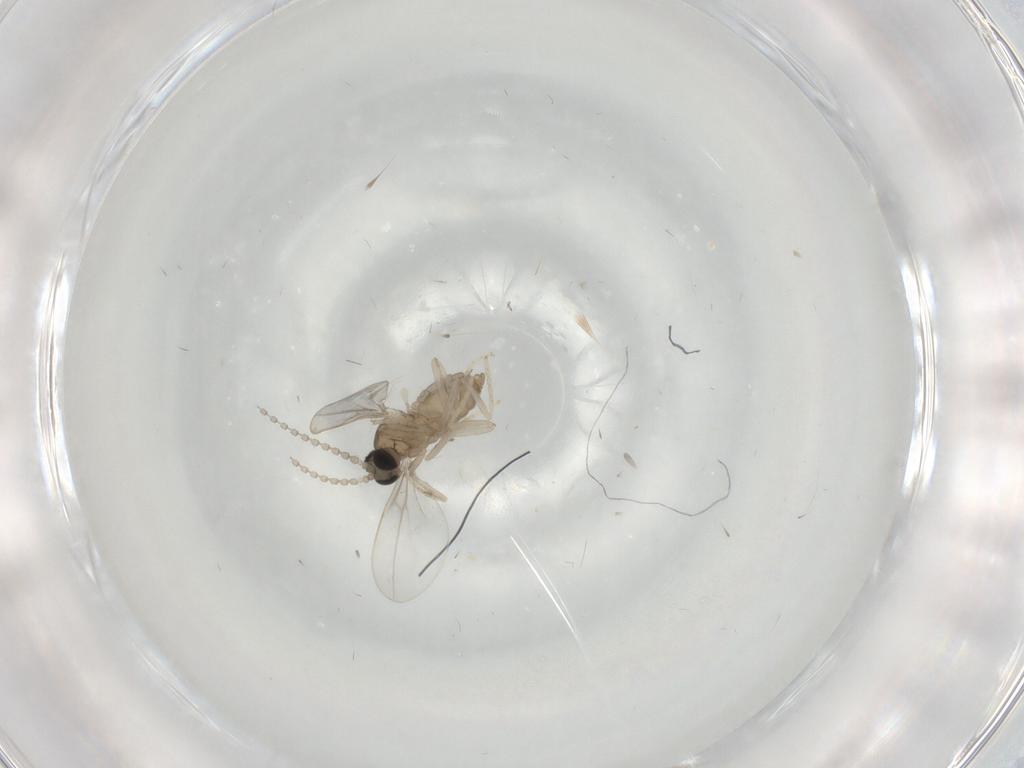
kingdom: Animalia
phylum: Arthropoda
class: Insecta
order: Diptera
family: Cecidomyiidae
